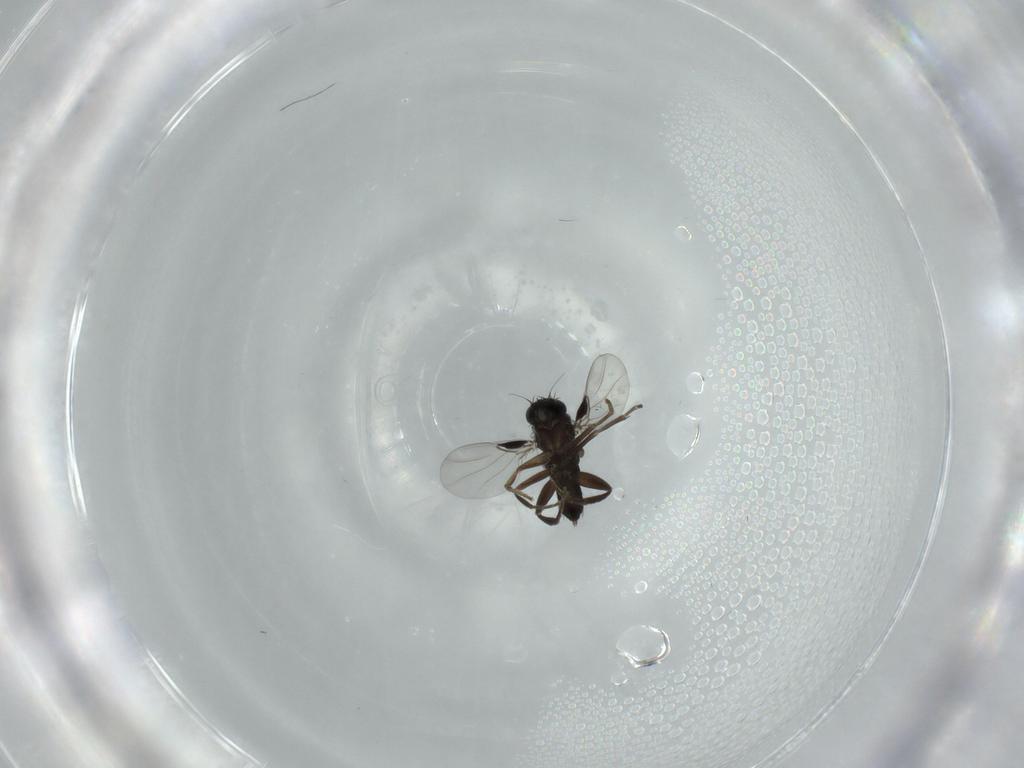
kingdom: Animalia
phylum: Arthropoda
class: Insecta
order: Diptera
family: Phoridae
